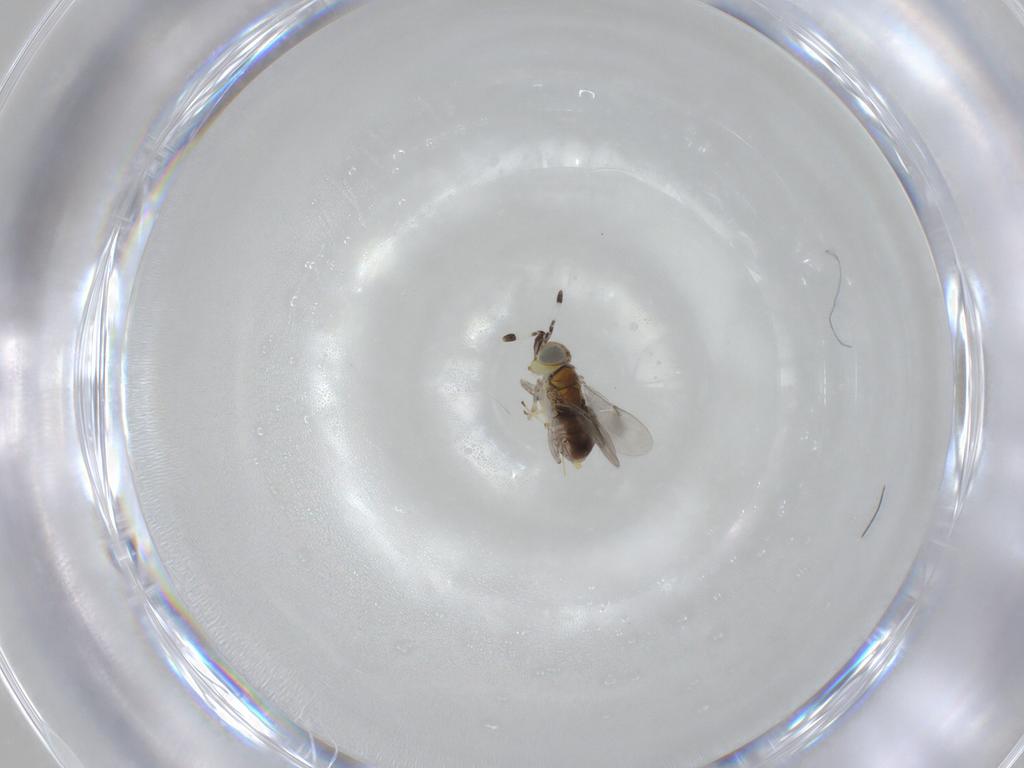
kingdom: Animalia
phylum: Arthropoda
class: Insecta
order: Hymenoptera
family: Encyrtidae
